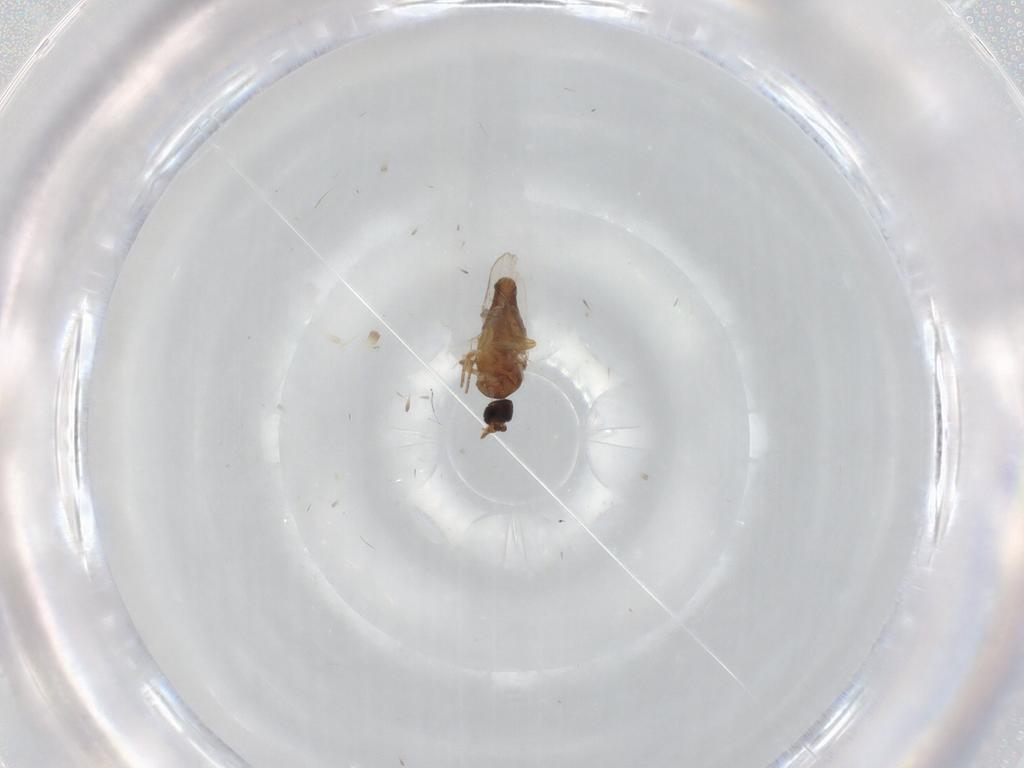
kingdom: Animalia
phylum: Arthropoda
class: Insecta
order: Diptera
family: Ceratopogonidae
